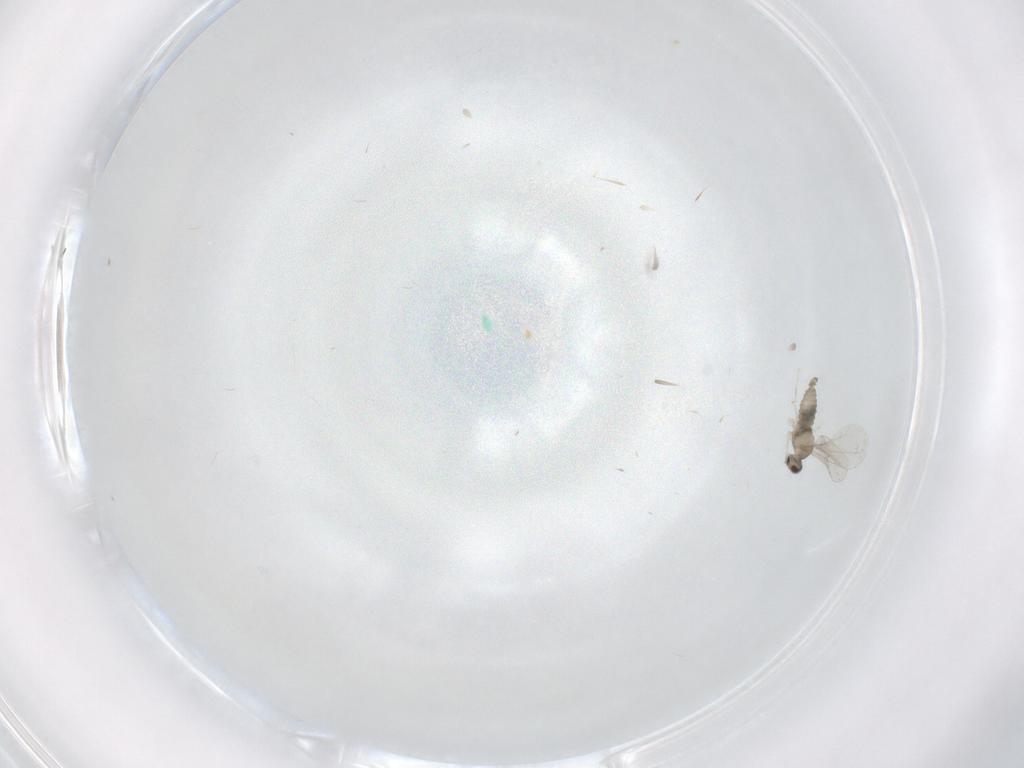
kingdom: Animalia
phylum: Arthropoda
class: Insecta
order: Diptera
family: Cecidomyiidae
